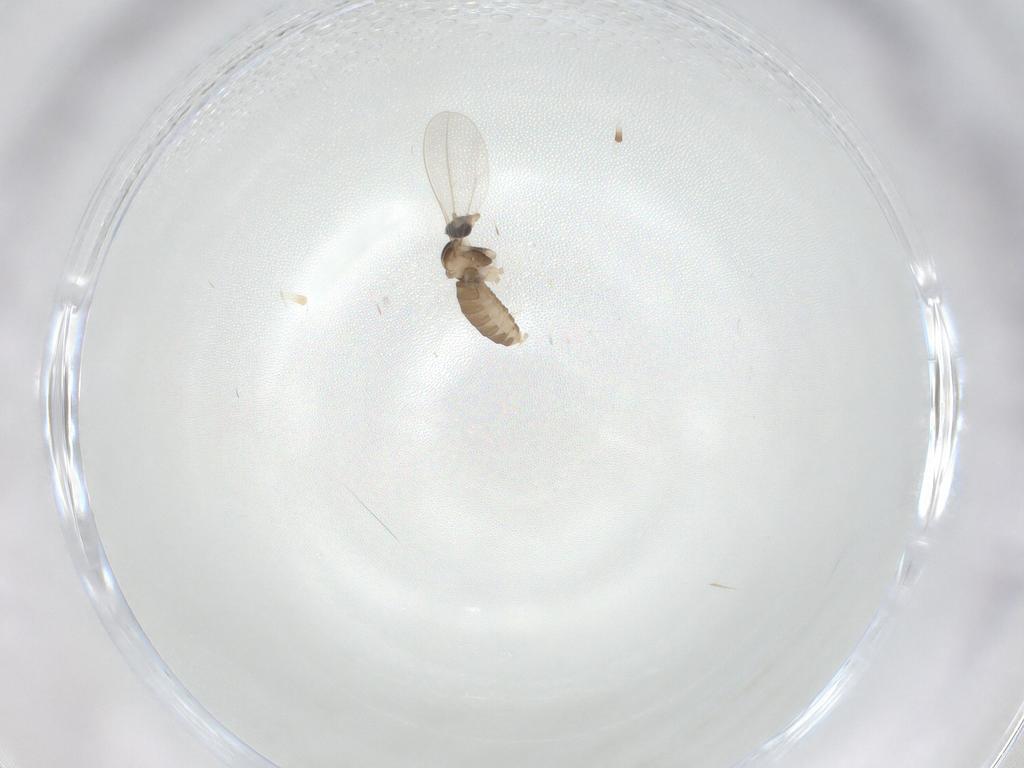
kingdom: Animalia
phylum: Arthropoda
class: Insecta
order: Diptera
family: Cecidomyiidae
